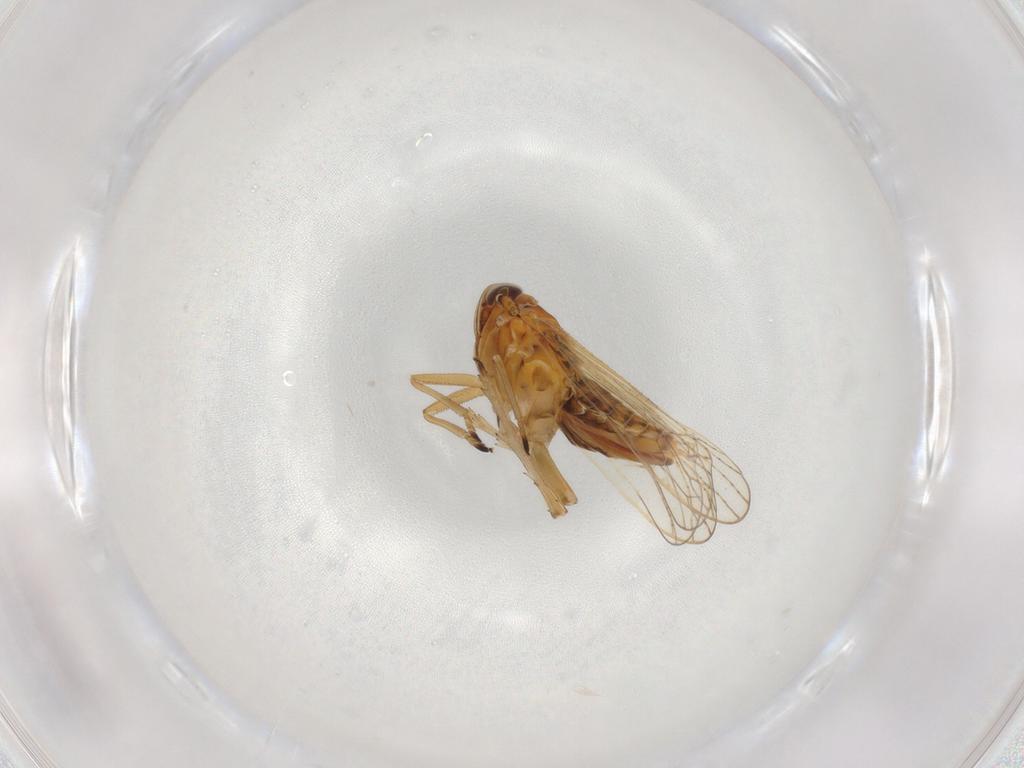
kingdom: Animalia
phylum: Arthropoda
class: Insecta
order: Hemiptera
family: Delphacidae
